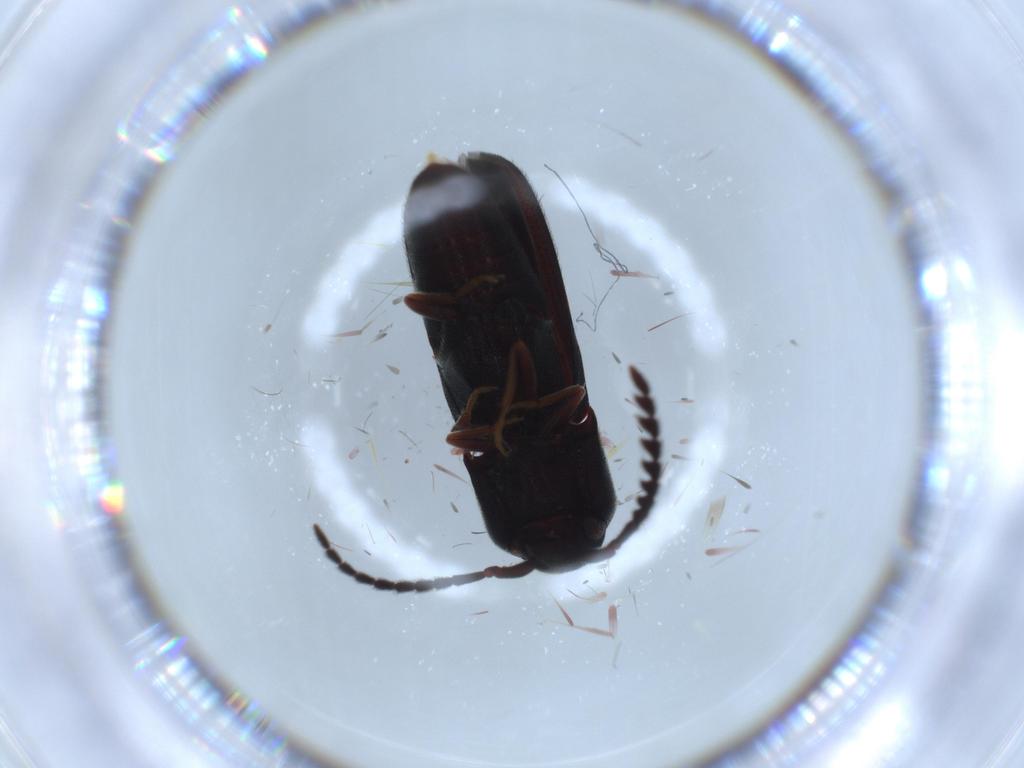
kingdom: Animalia
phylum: Arthropoda
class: Insecta
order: Coleoptera
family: Eucnemidae
